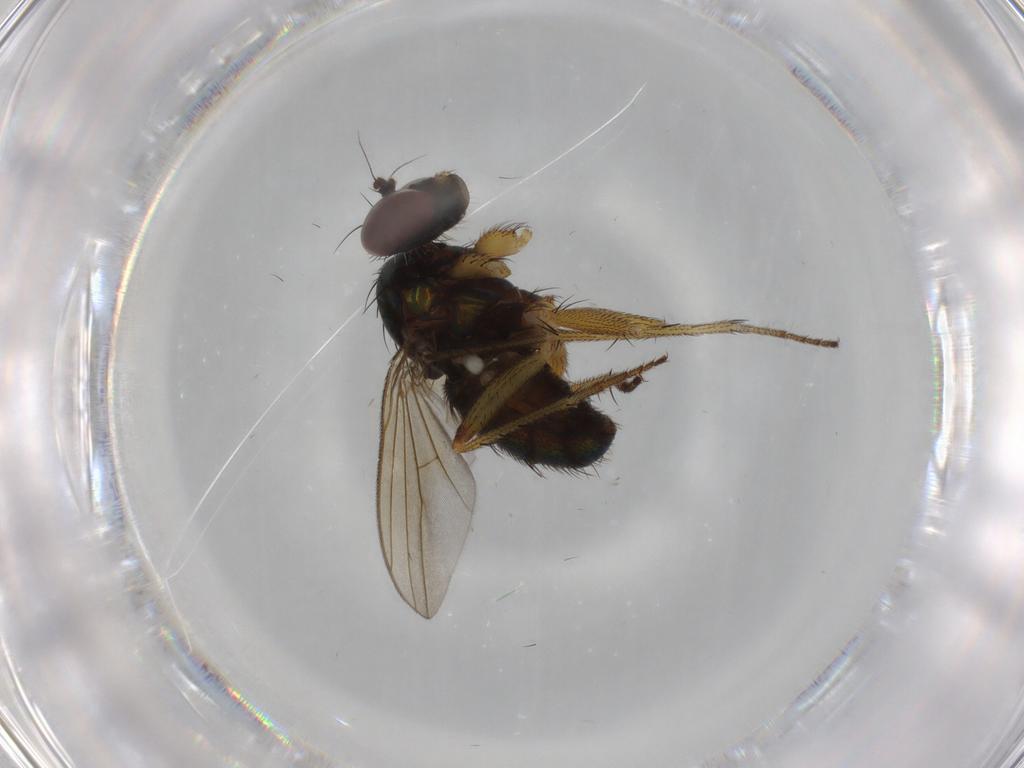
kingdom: Animalia
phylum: Arthropoda
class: Insecta
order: Diptera
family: Dolichopodidae
